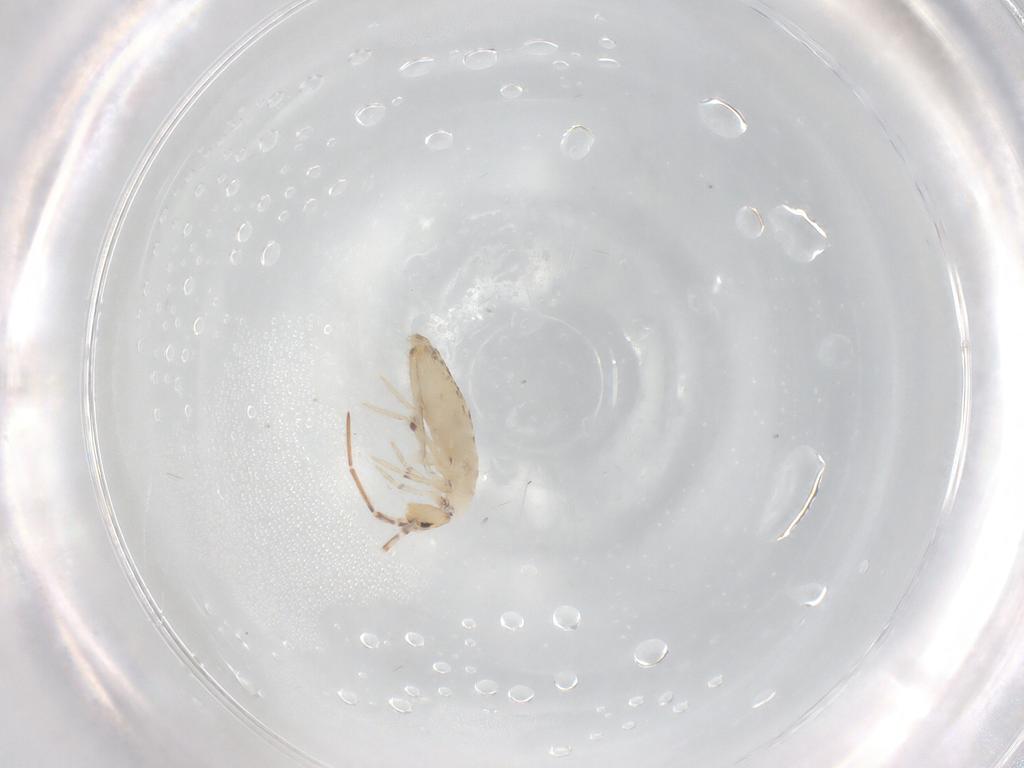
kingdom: Animalia
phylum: Arthropoda
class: Collembola
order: Entomobryomorpha
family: Entomobryidae
